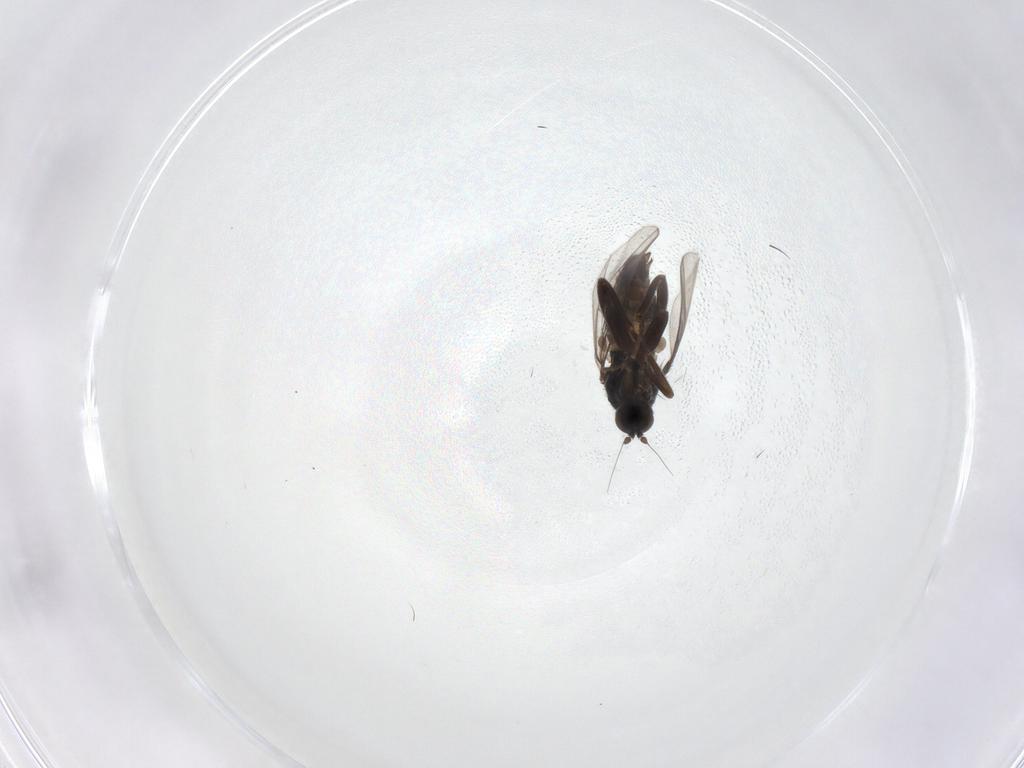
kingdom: Animalia
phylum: Arthropoda
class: Insecta
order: Diptera
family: Hybotidae
